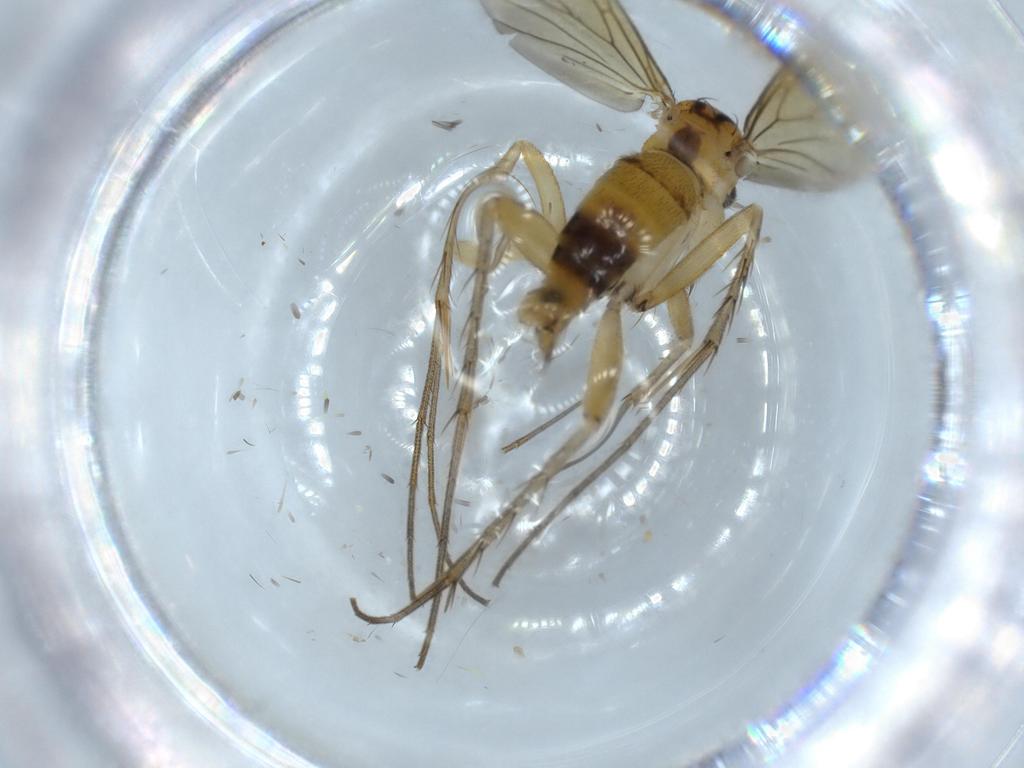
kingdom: Animalia
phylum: Arthropoda
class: Insecta
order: Diptera
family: Mycetophilidae
